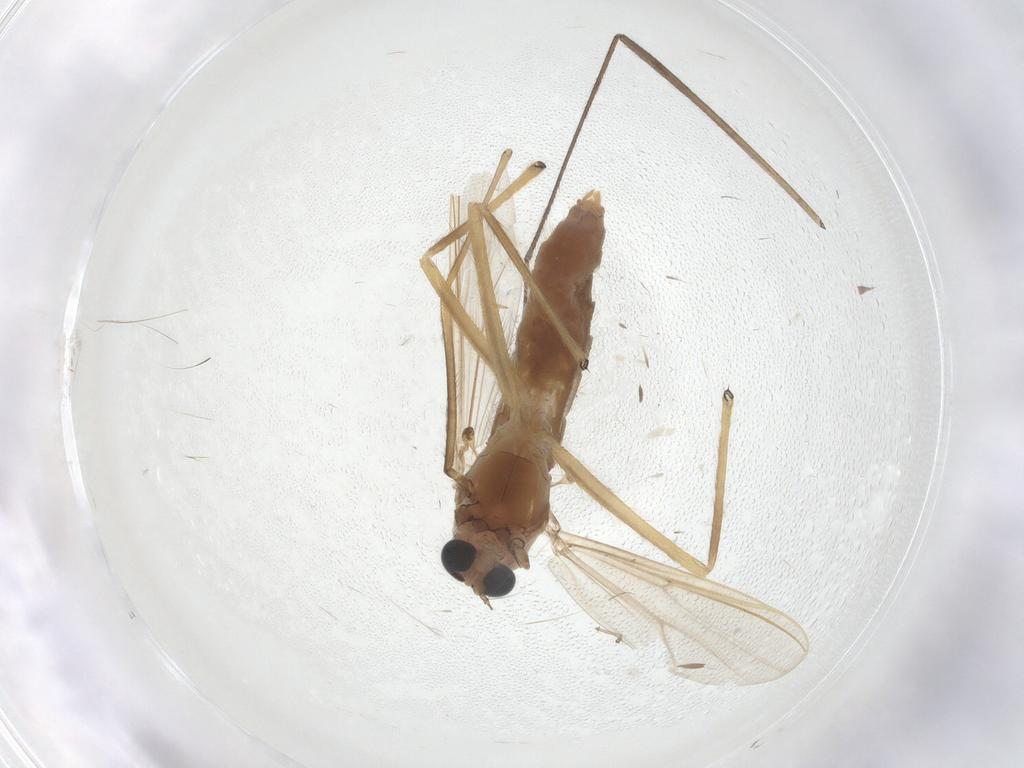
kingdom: Animalia
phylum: Arthropoda
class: Insecta
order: Diptera
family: Chironomidae
